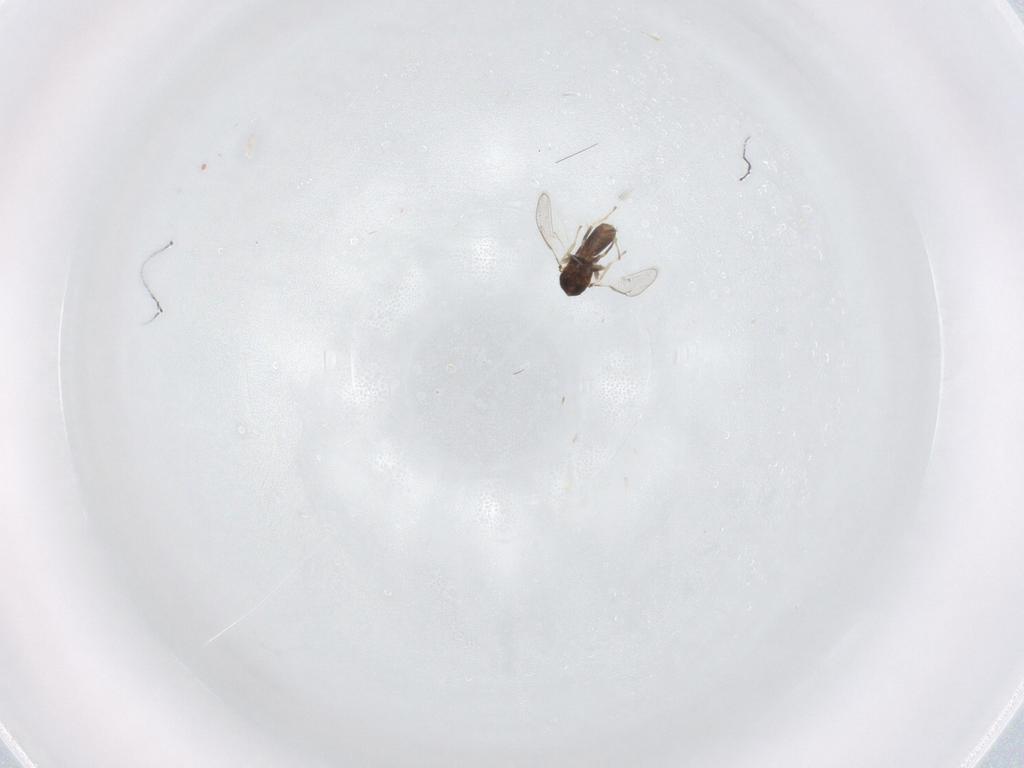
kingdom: Animalia
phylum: Arthropoda
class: Insecta
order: Hymenoptera
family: Eulophidae
